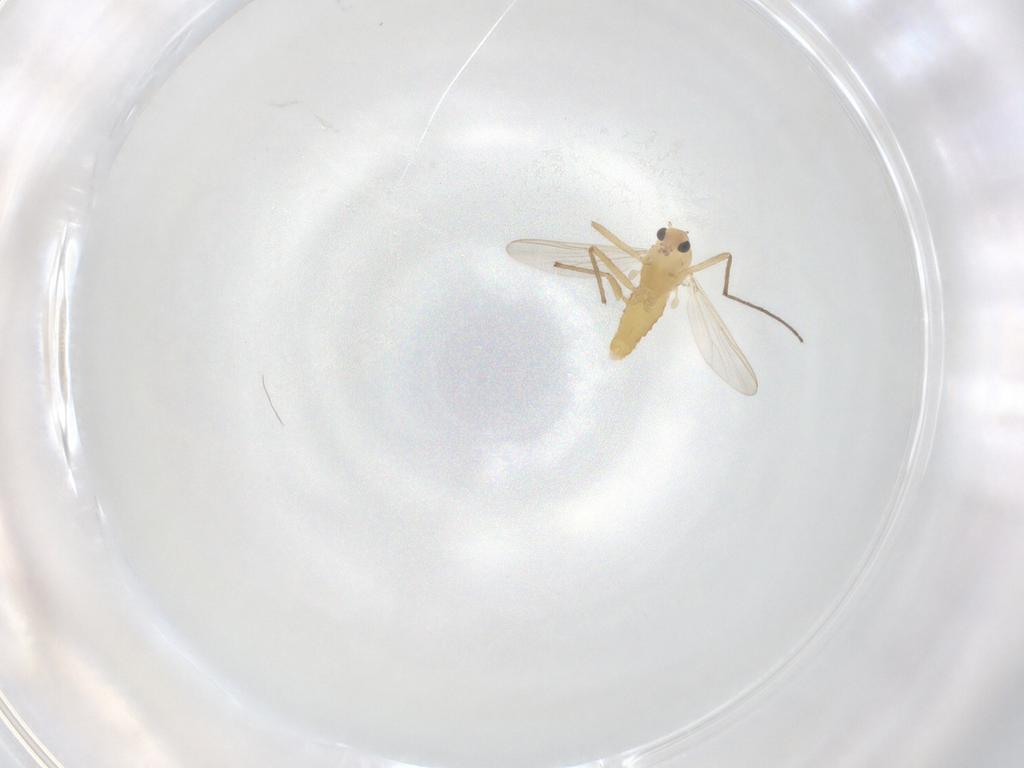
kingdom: Animalia
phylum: Arthropoda
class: Insecta
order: Diptera
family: Chironomidae
